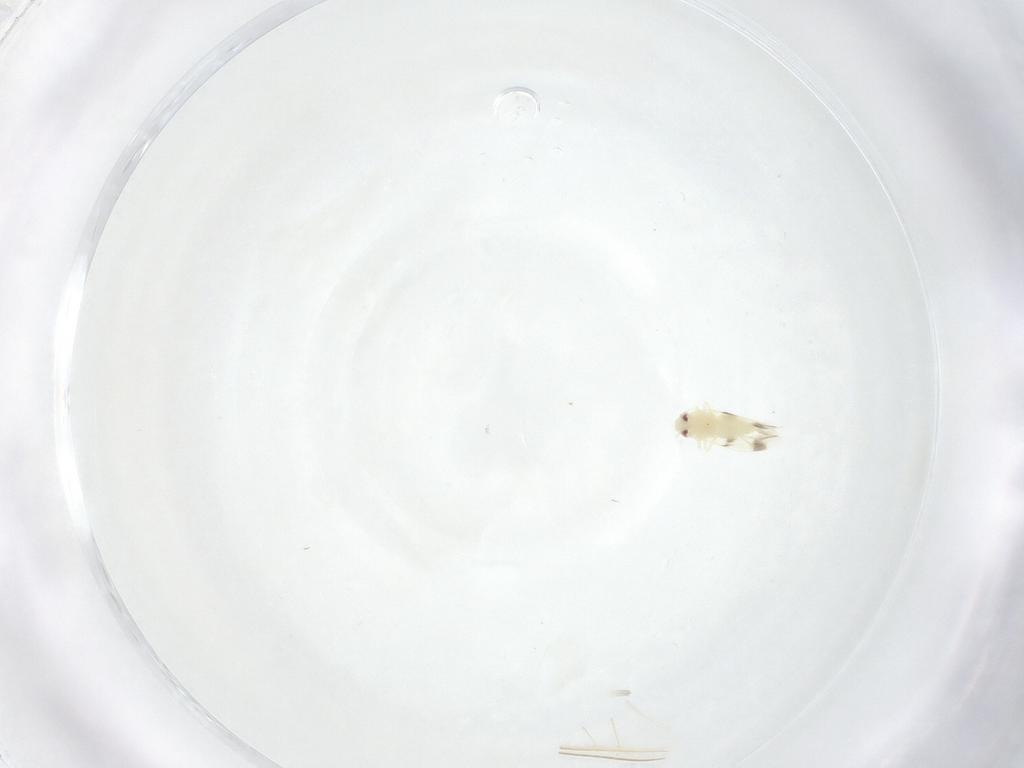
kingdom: Animalia
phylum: Arthropoda
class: Insecta
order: Hemiptera
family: Aleyrodidae
